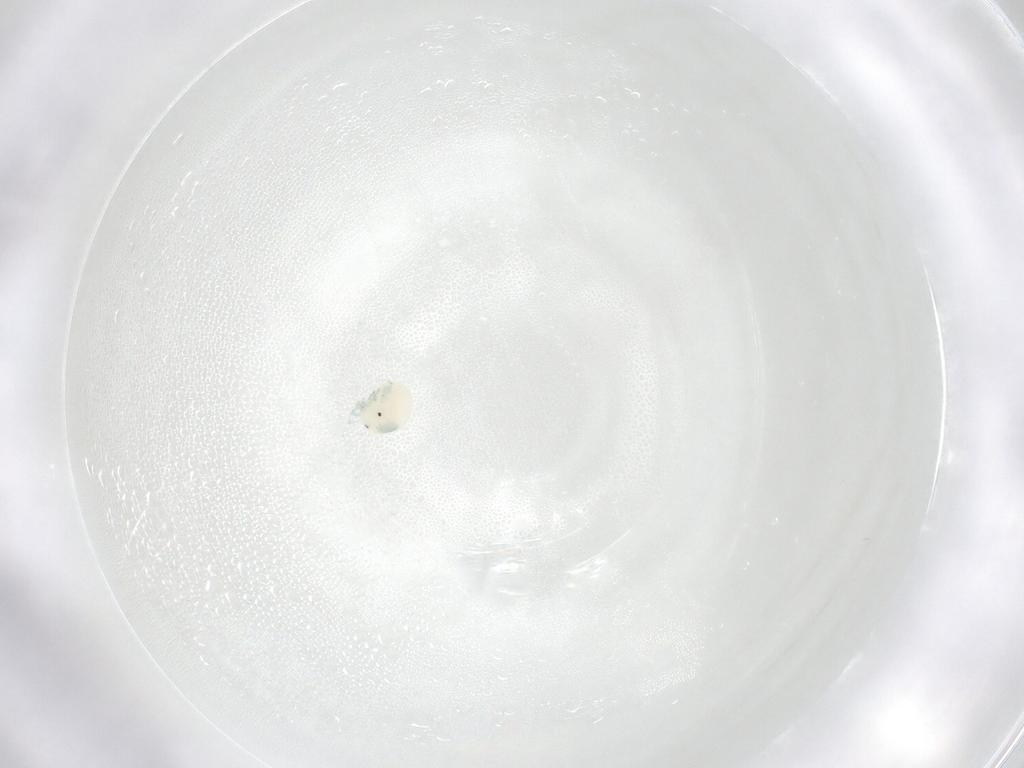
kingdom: Animalia
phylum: Arthropoda
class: Arachnida
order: Trombidiformes
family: Arrenuridae
